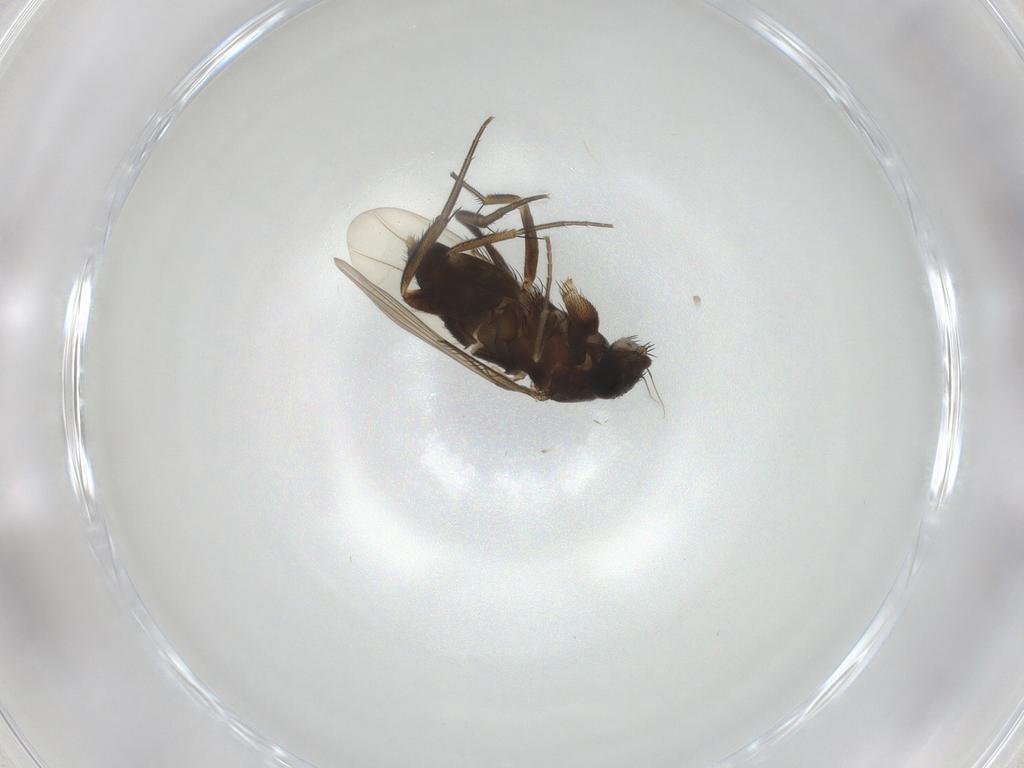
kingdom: Animalia
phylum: Arthropoda
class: Insecta
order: Diptera
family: Phoridae
